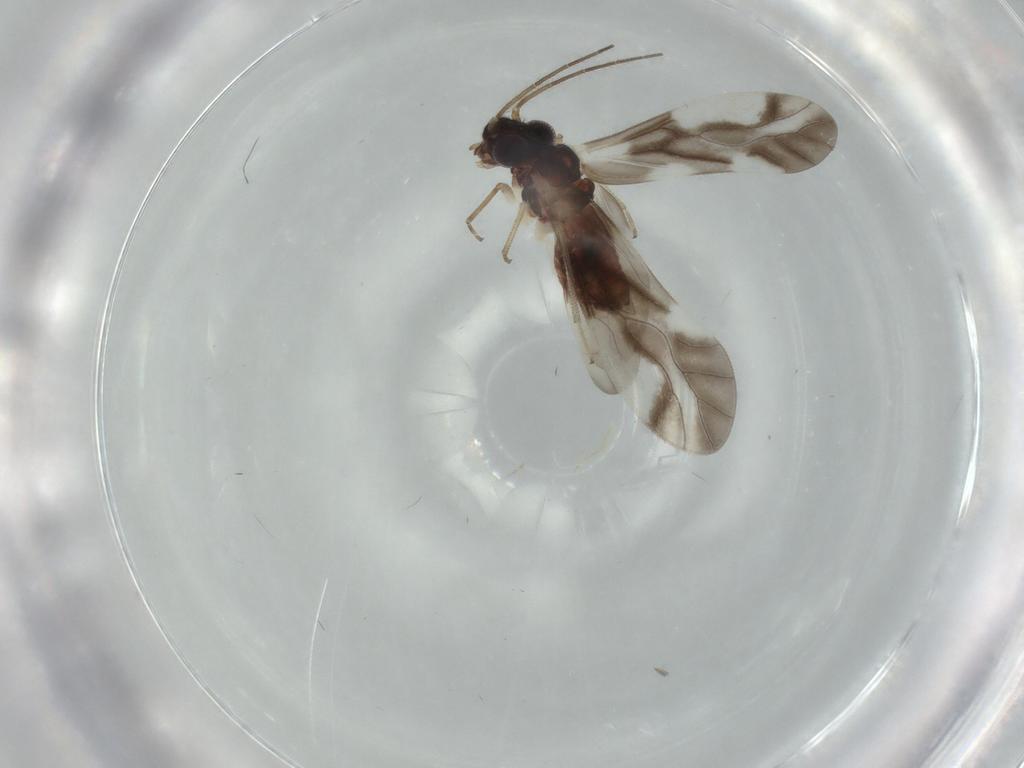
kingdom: Animalia
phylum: Arthropoda
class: Insecta
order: Psocodea
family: Caeciliusidae
